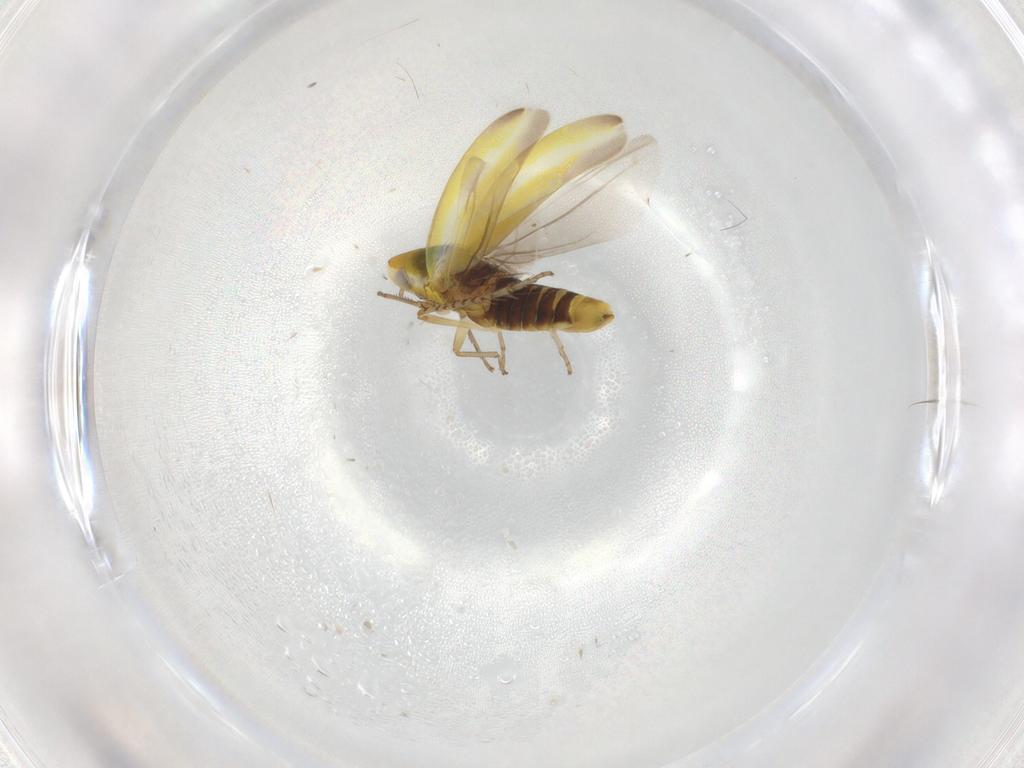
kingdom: Animalia
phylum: Arthropoda
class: Insecta
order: Hemiptera
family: Cicadellidae
